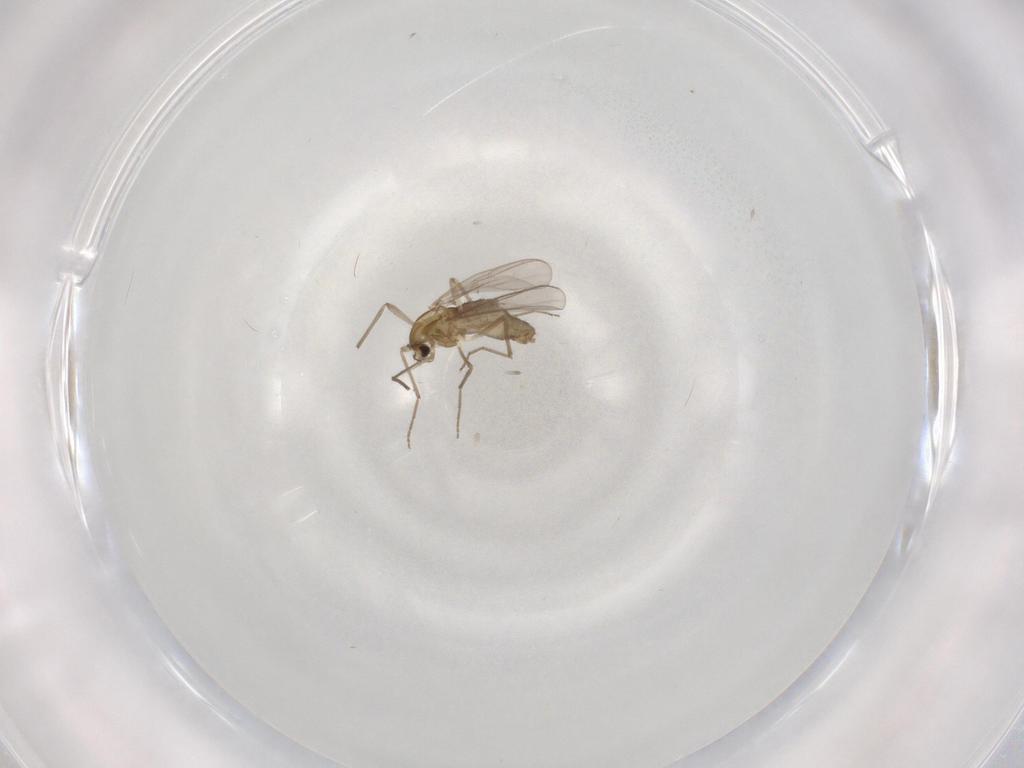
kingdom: Animalia
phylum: Arthropoda
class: Insecta
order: Diptera
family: Chironomidae
